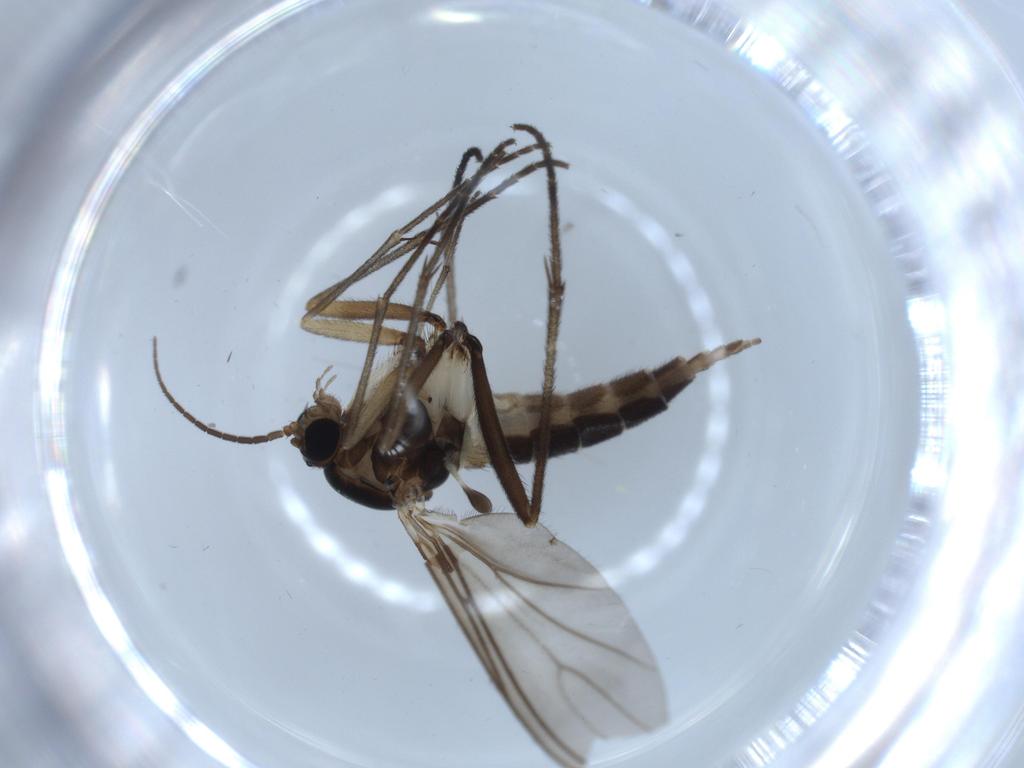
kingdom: Animalia
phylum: Arthropoda
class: Insecta
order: Diptera
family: Sciaridae
